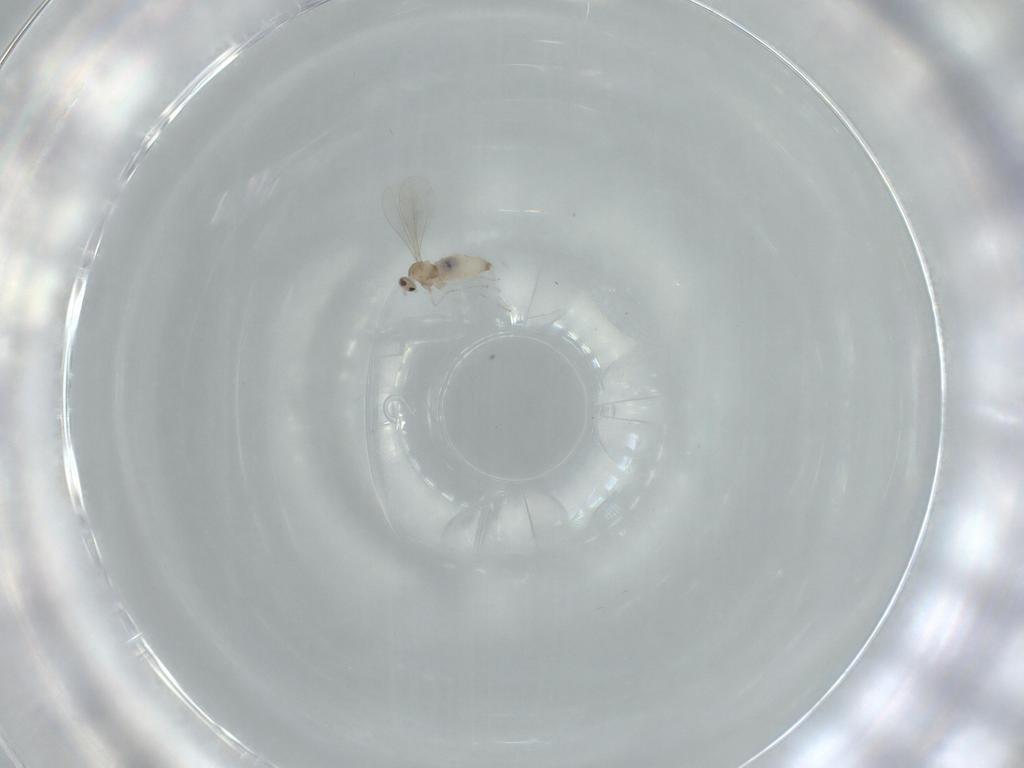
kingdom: Animalia
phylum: Arthropoda
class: Insecta
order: Diptera
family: Cecidomyiidae
